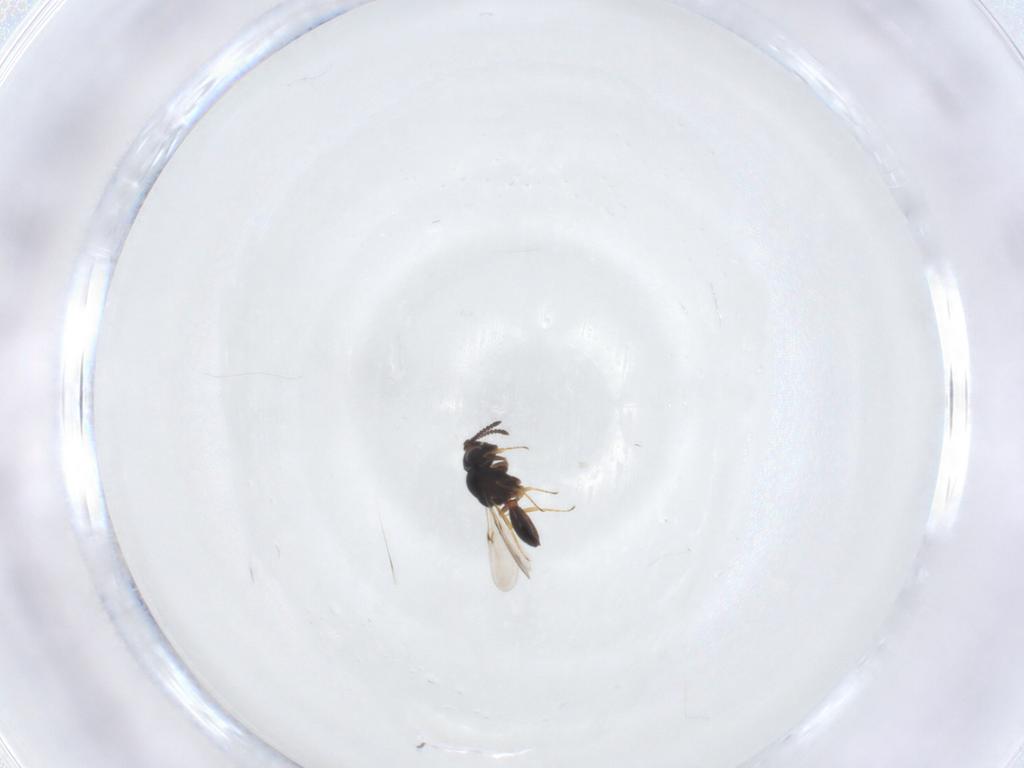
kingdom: Animalia
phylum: Arthropoda
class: Arachnida
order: Araneae
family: Pholcidae
